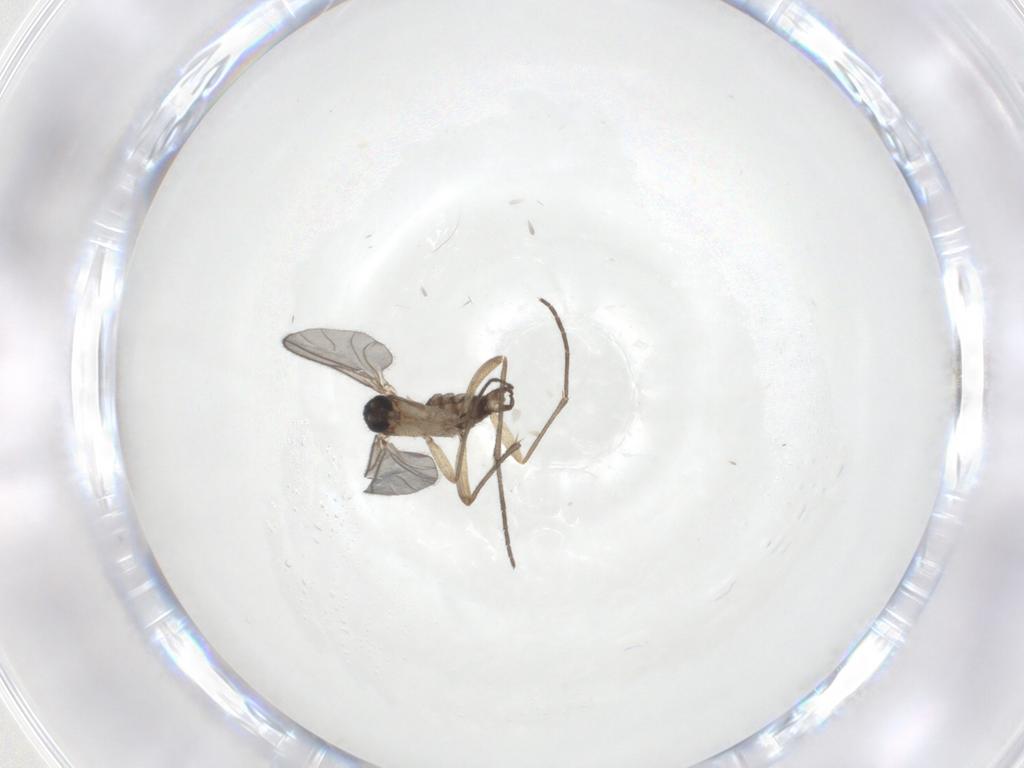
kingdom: Animalia
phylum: Arthropoda
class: Insecta
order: Diptera
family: Sciaridae
